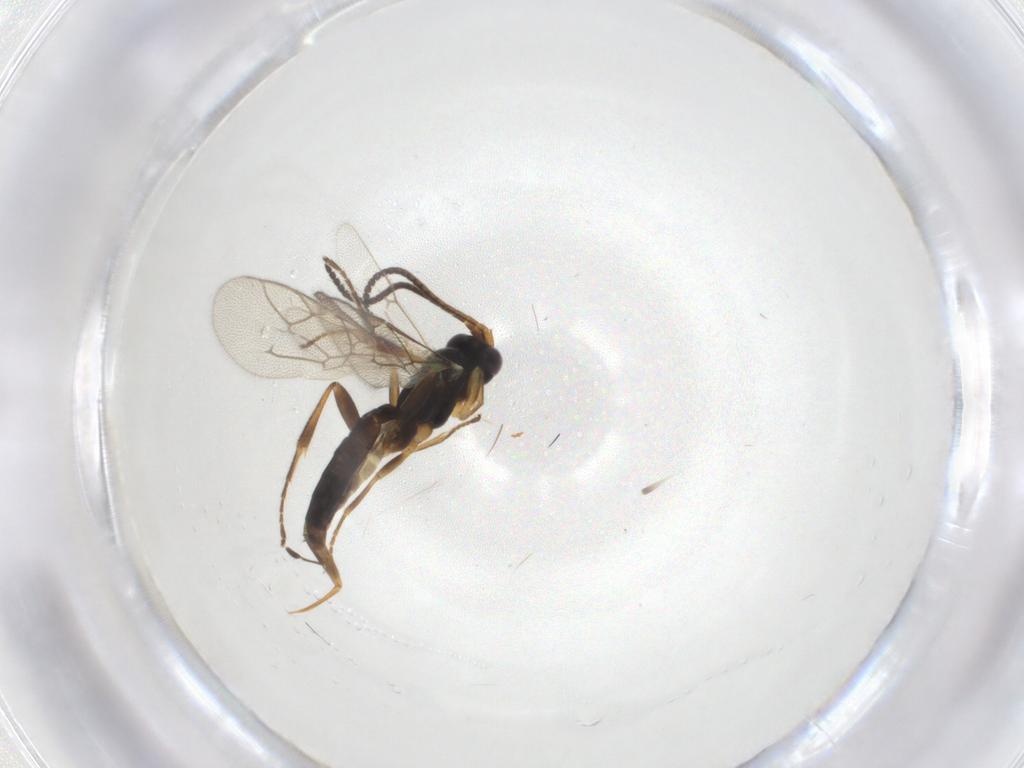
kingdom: Animalia
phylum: Arthropoda
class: Insecta
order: Hymenoptera
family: Ichneumonidae
